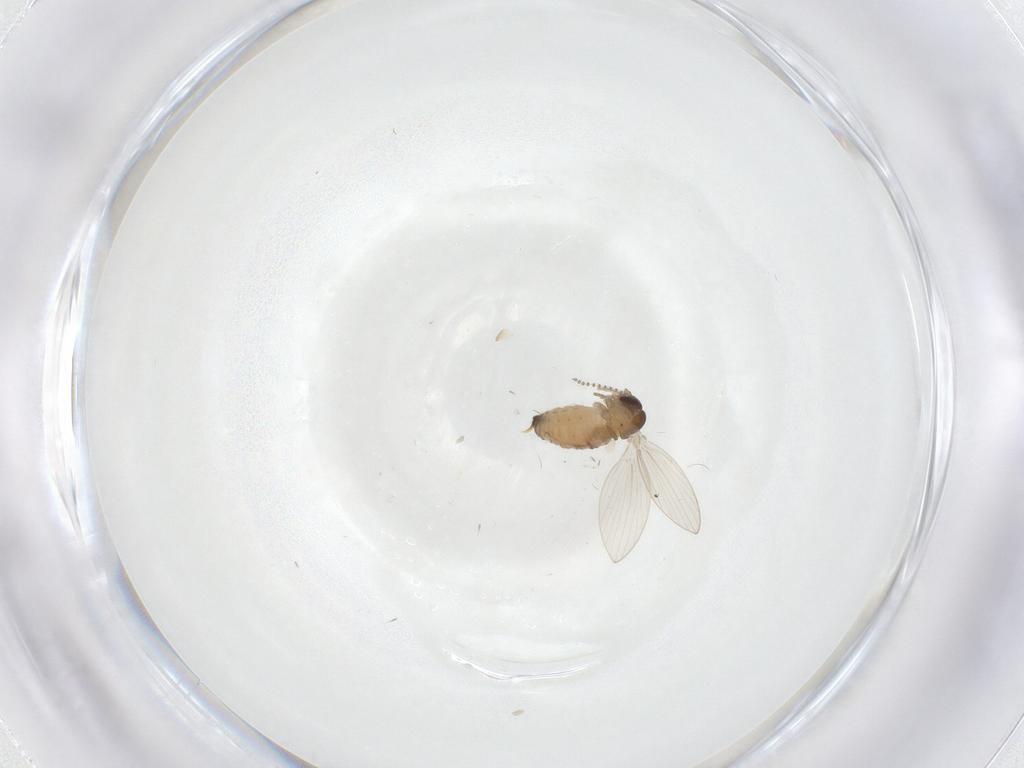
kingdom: Animalia
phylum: Arthropoda
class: Insecta
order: Diptera
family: Psychodidae
